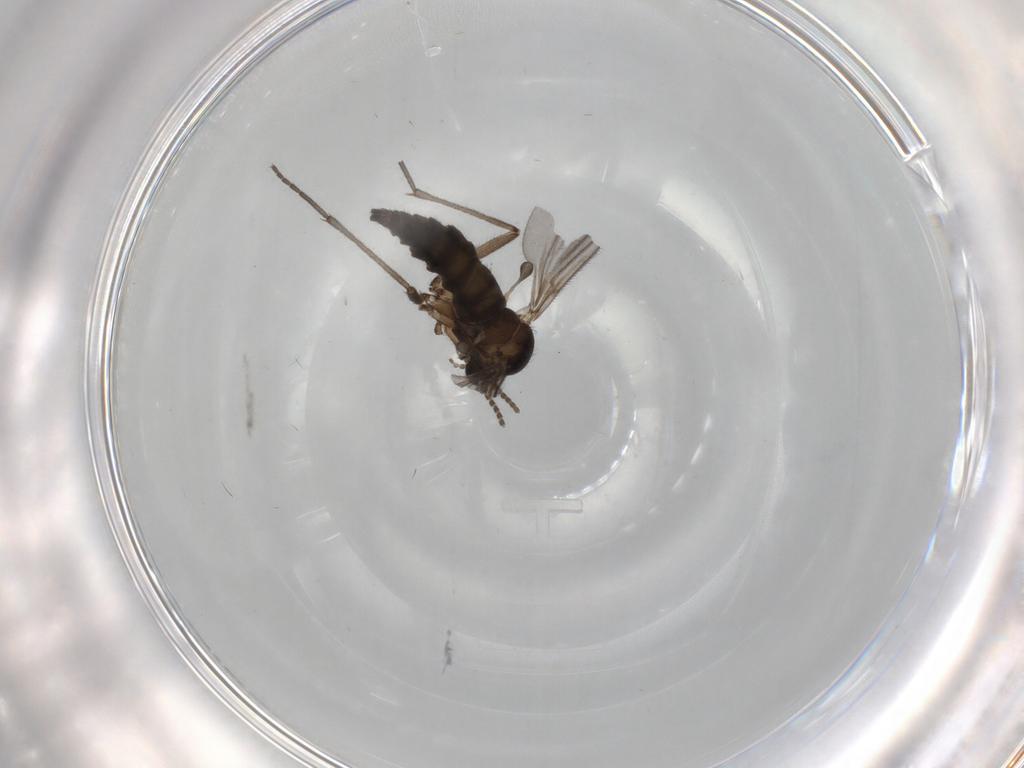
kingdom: Animalia
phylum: Arthropoda
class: Insecta
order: Diptera
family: Sciaridae
